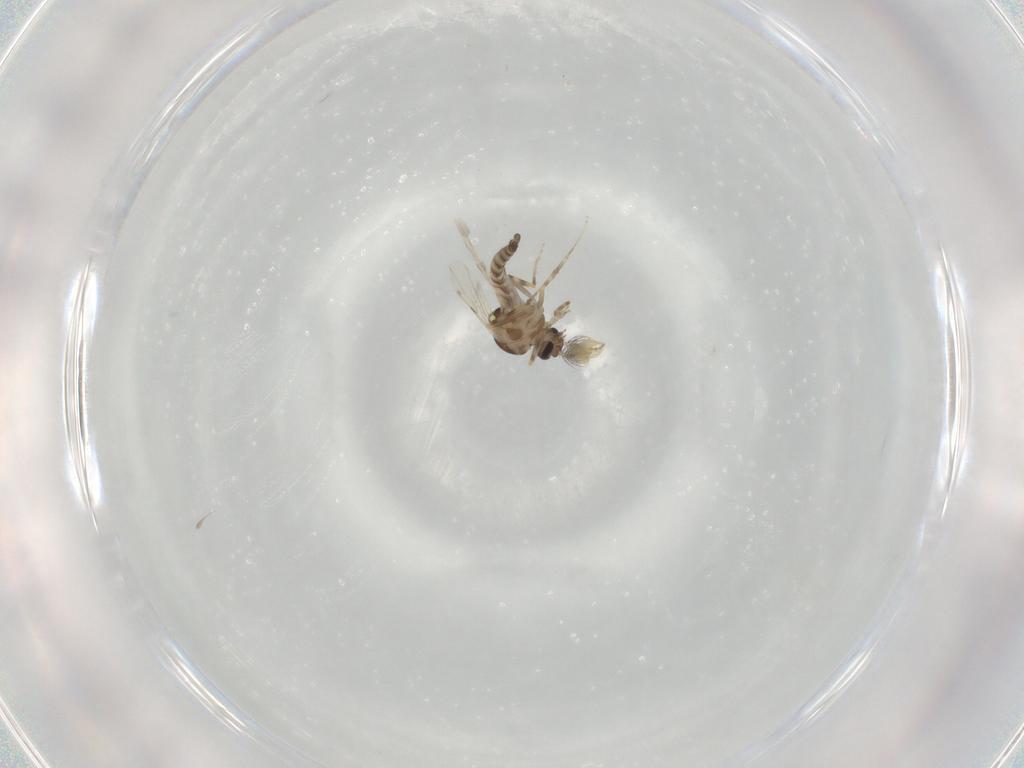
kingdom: Animalia
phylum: Arthropoda
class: Insecta
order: Diptera
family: Ceratopogonidae
